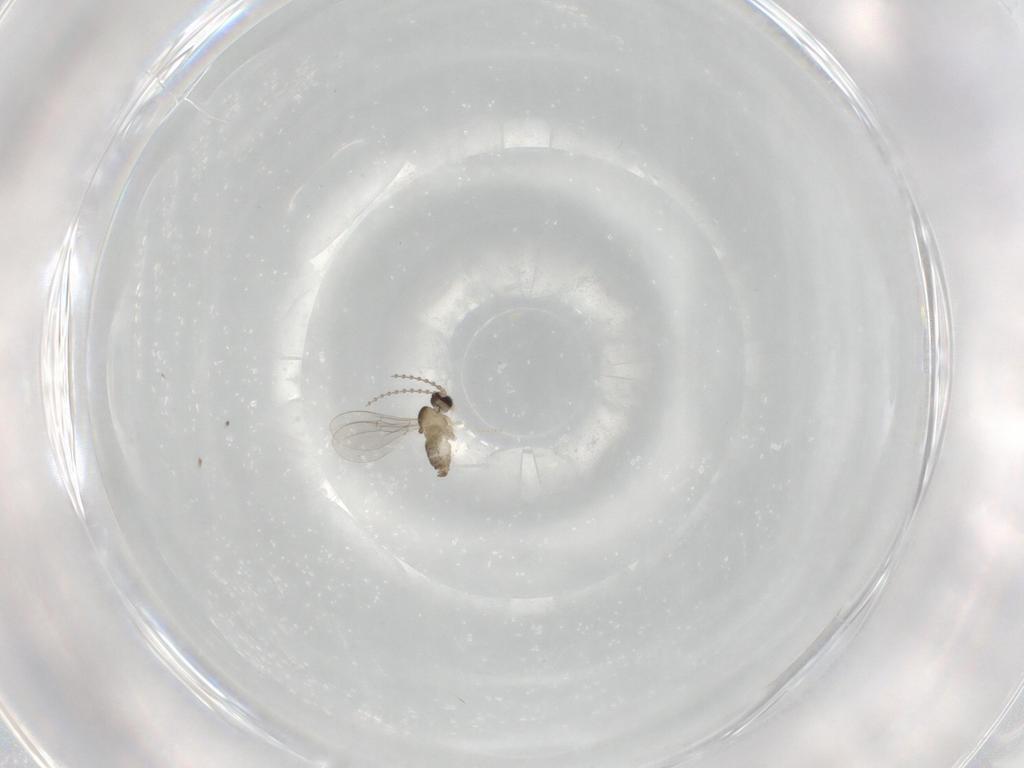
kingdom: Animalia
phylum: Arthropoda
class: Insecta
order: Diptera
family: Cecidomyiidae
